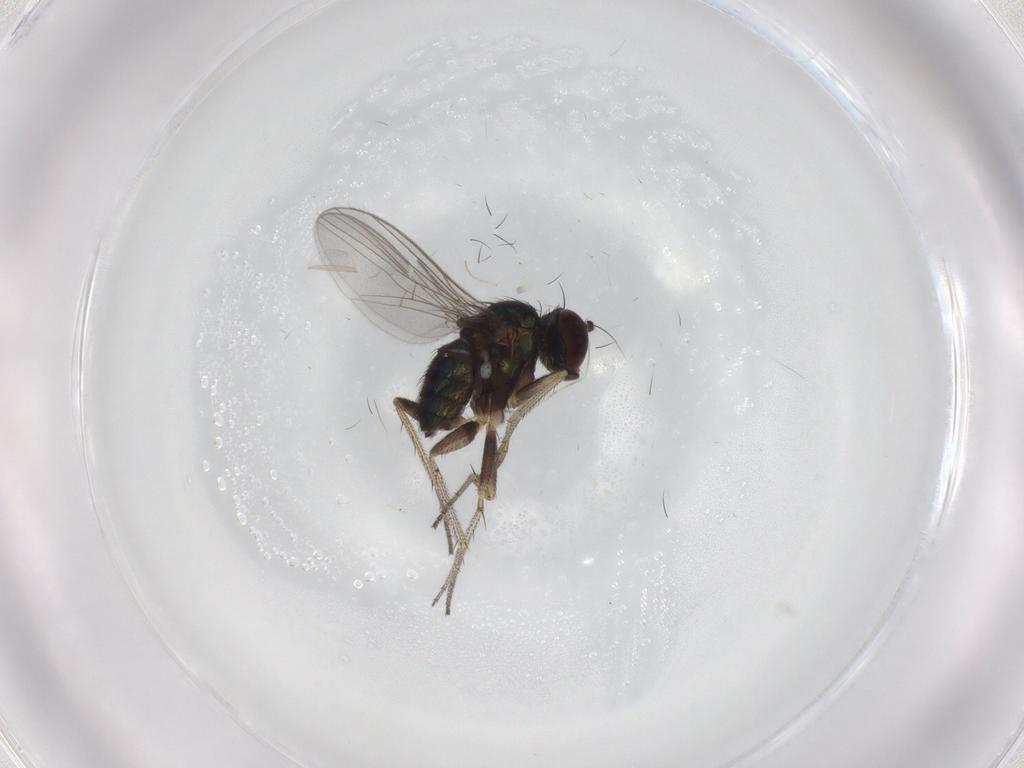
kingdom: Animalia
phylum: Arthropoda
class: Insecta
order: Diptera
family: Dolichopodidae
